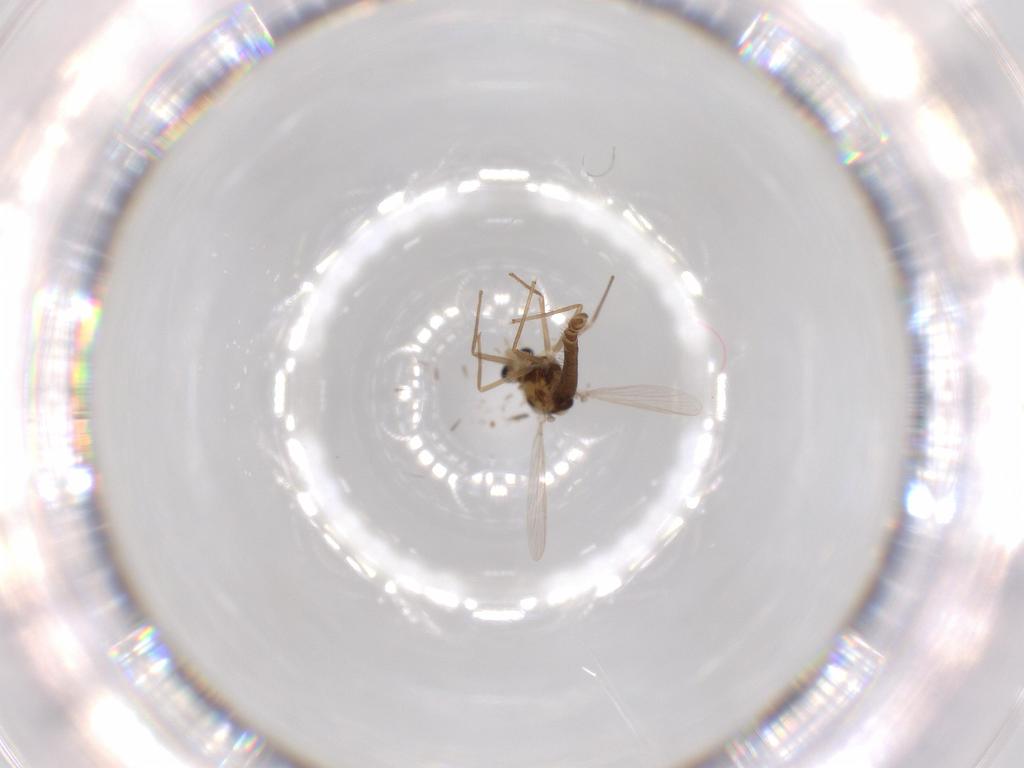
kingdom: Animalia
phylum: Arthropoda
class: Insecta
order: Diptera
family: Chironomidae
